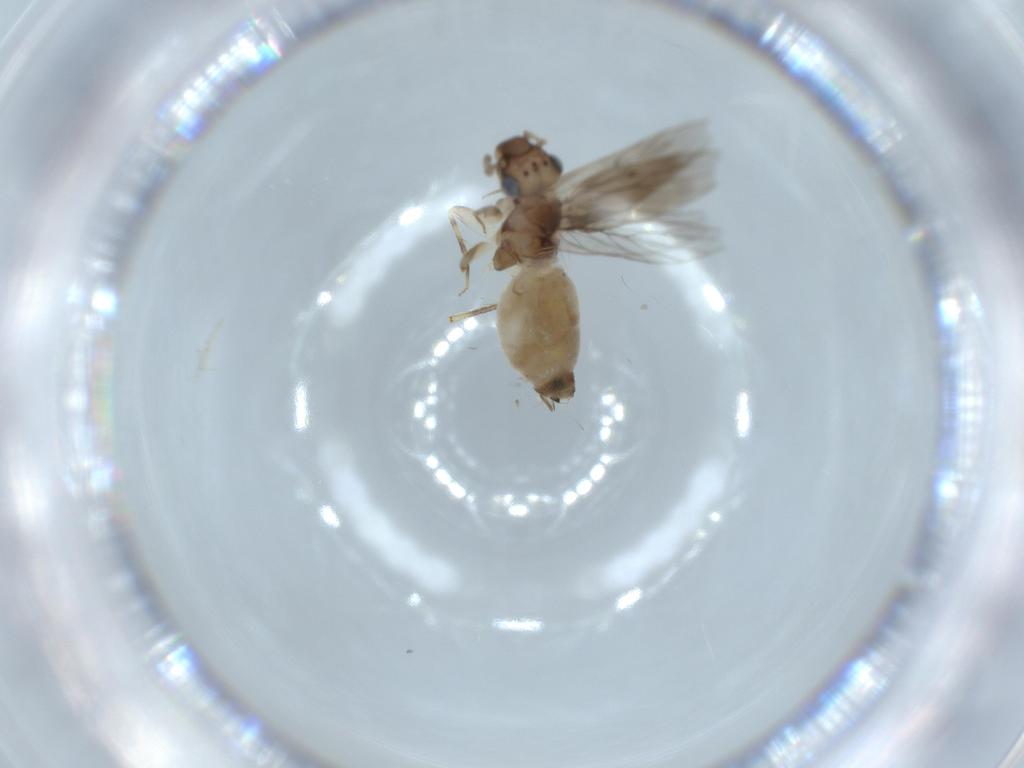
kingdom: Animalia
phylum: Arthropoda
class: Insecta
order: Psocodea
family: Lepidopsocidae
